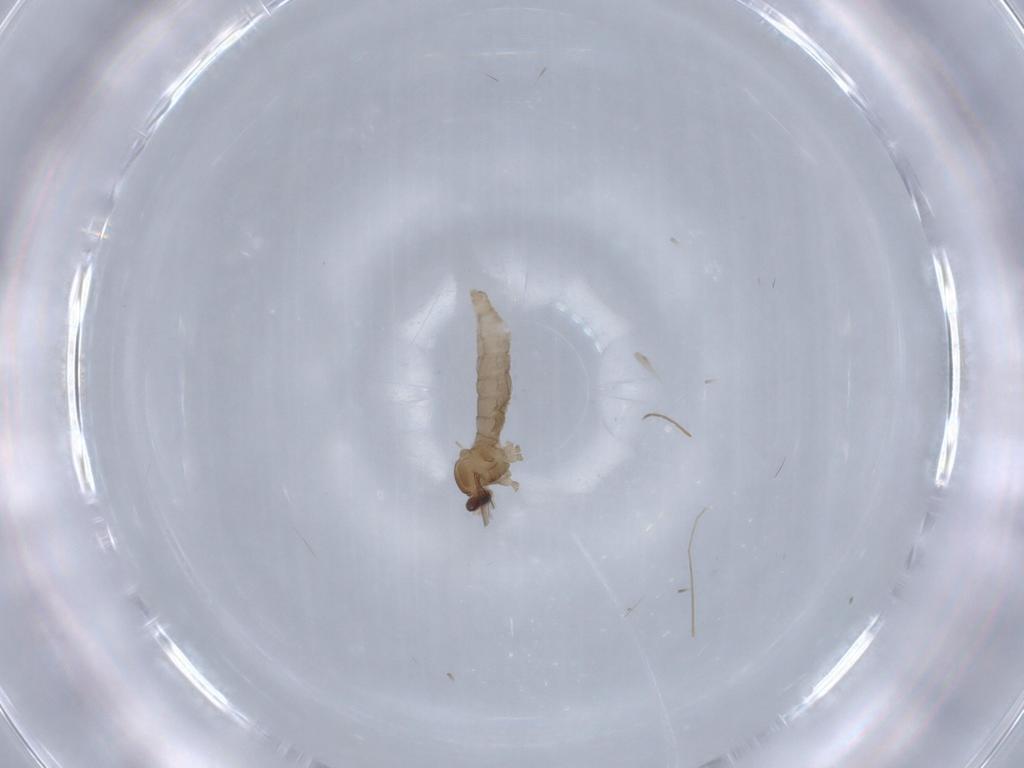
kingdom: Animalia
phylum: Arthropoda
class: Insecta
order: Diptera
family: Cecidomyiidae
